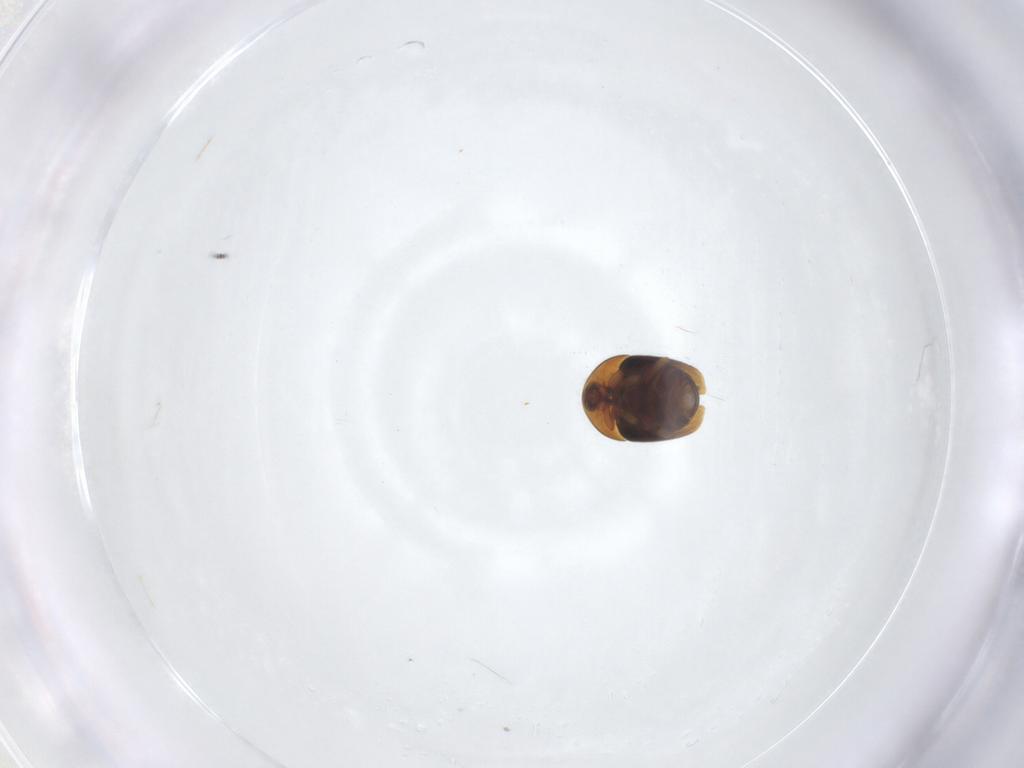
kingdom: Animalia
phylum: Arthropoda
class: Insecta
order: Coleoptera
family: Corylophidae
